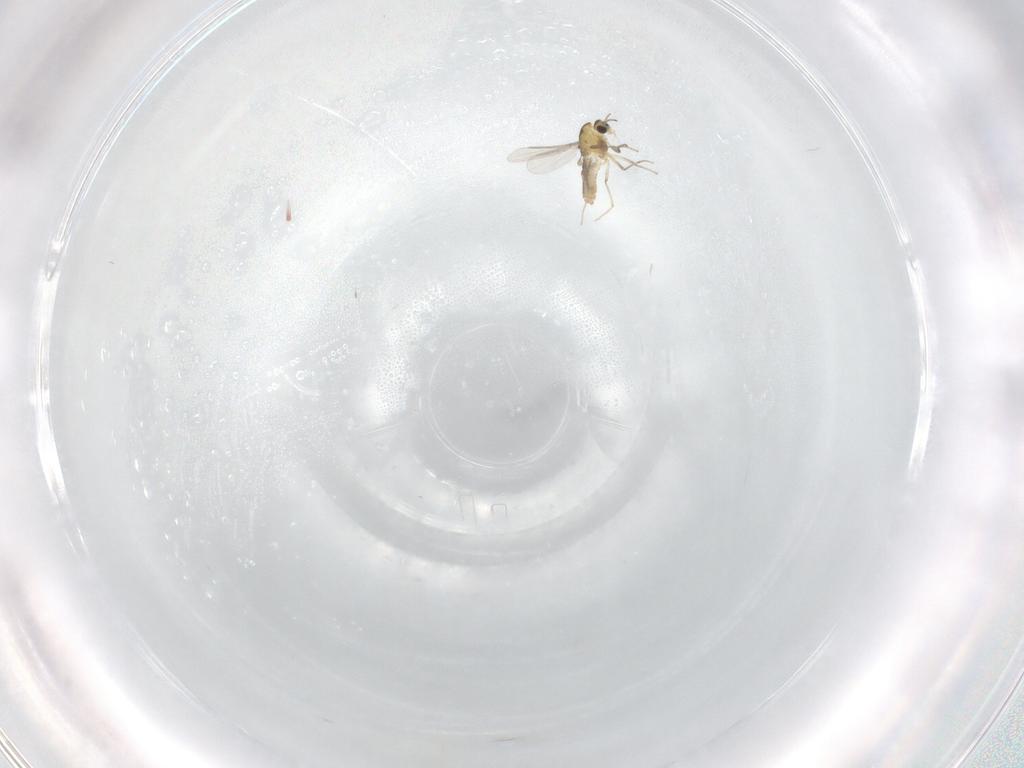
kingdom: Animalia
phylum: Arthropoda
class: Insecta
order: Diptera
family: Chironomidae
